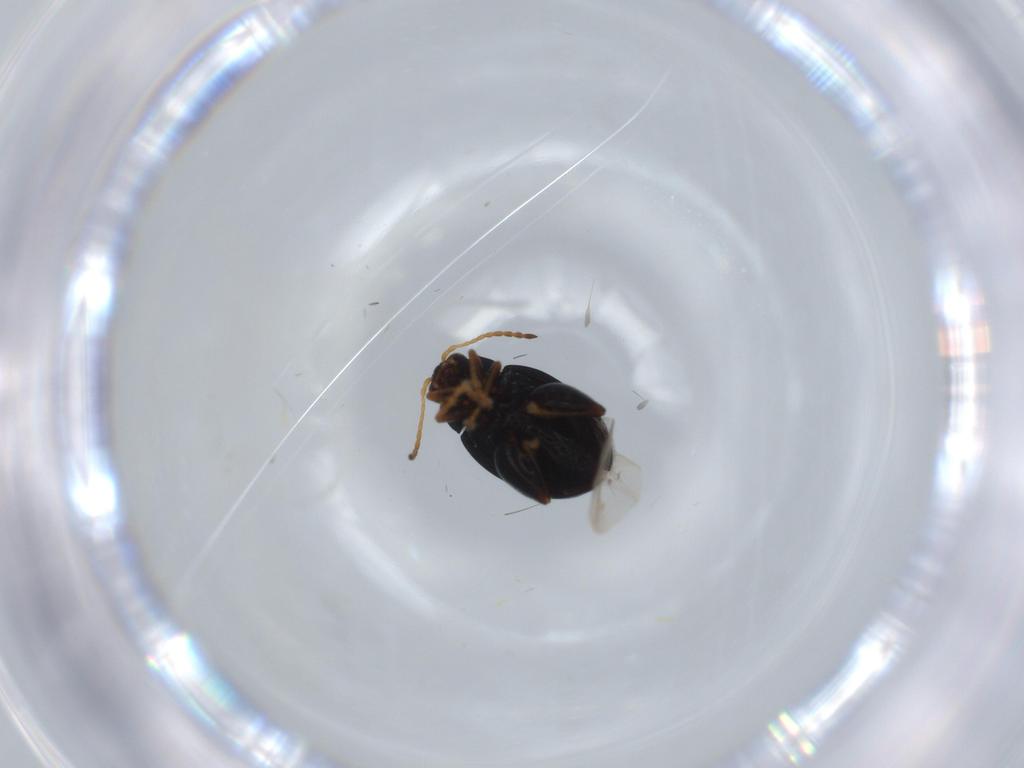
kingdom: Animalia
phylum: Arthropoda
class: Insecta
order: Coleoptera
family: Chrysomelidae
